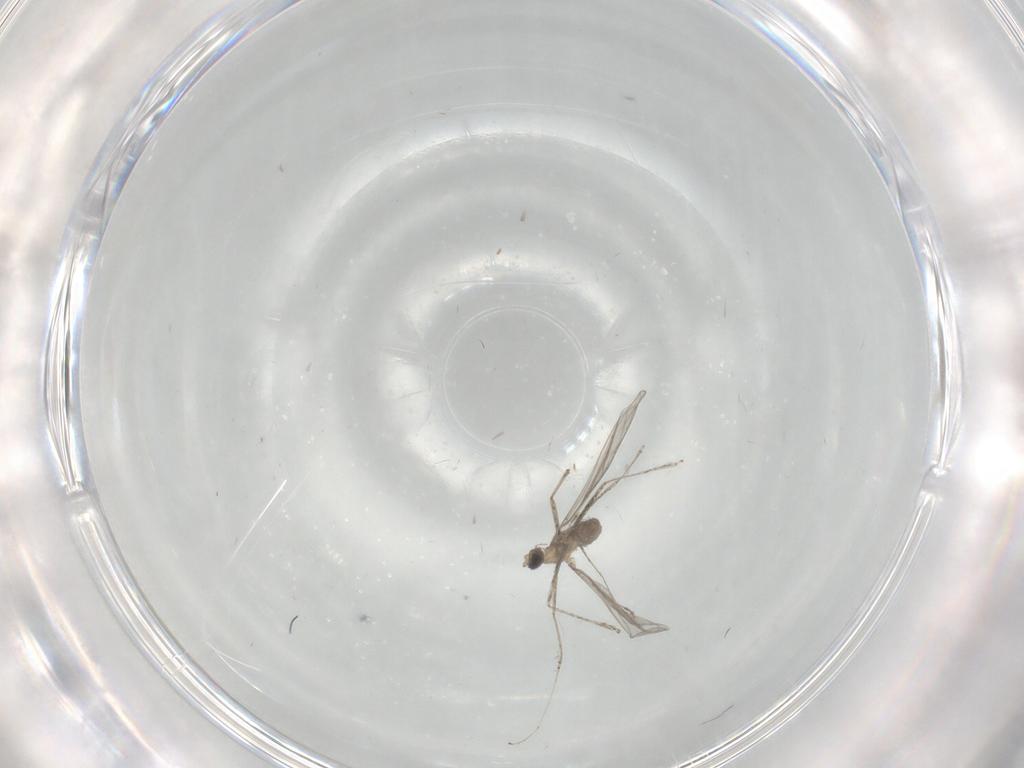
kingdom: Animalia
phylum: Arthropoda
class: Insecta
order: Diptera
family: Cecidomyiidae
